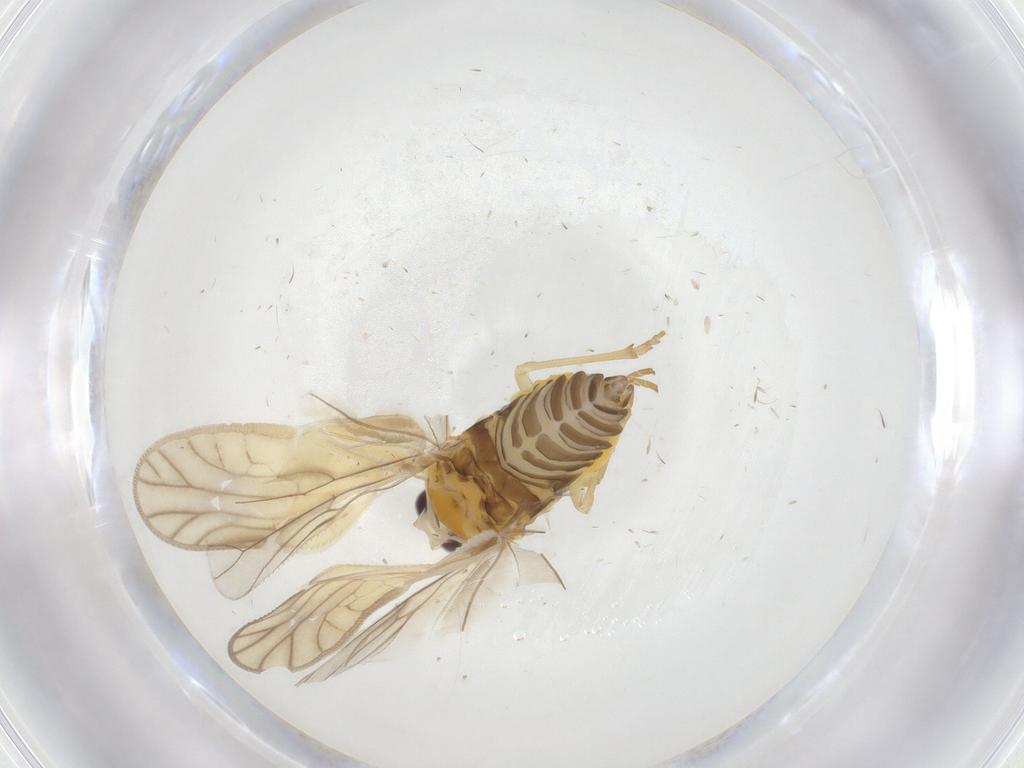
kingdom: Animalia
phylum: Arthropoda
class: Insecta
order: Hemiptera
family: Meenoplidae
